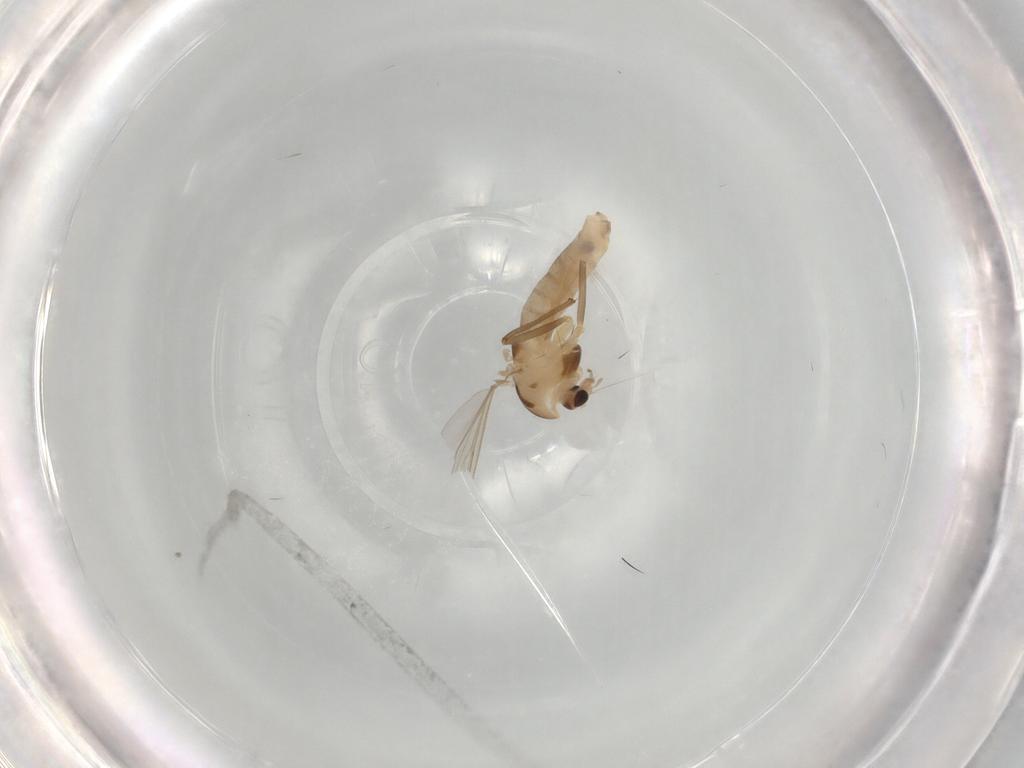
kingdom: Animalia
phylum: Arthropoda
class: Insecta
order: Diptera
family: Chironomidae
